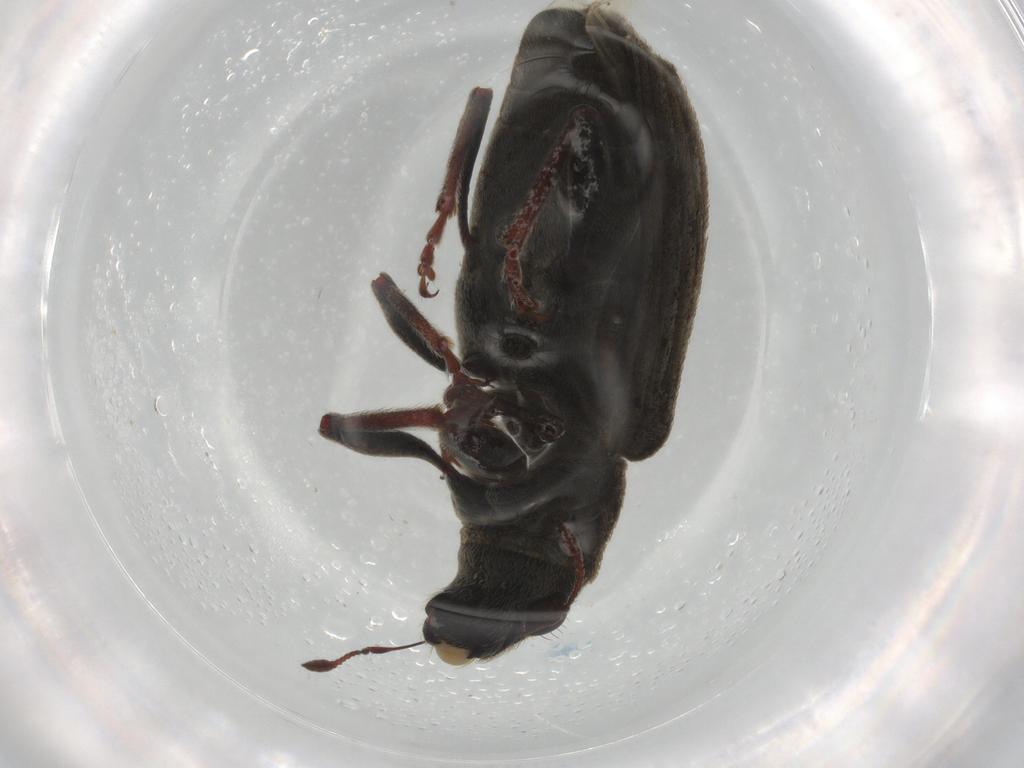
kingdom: Animalia
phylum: Arthropoda
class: Insecta
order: Coleoptera
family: Curculionidae
